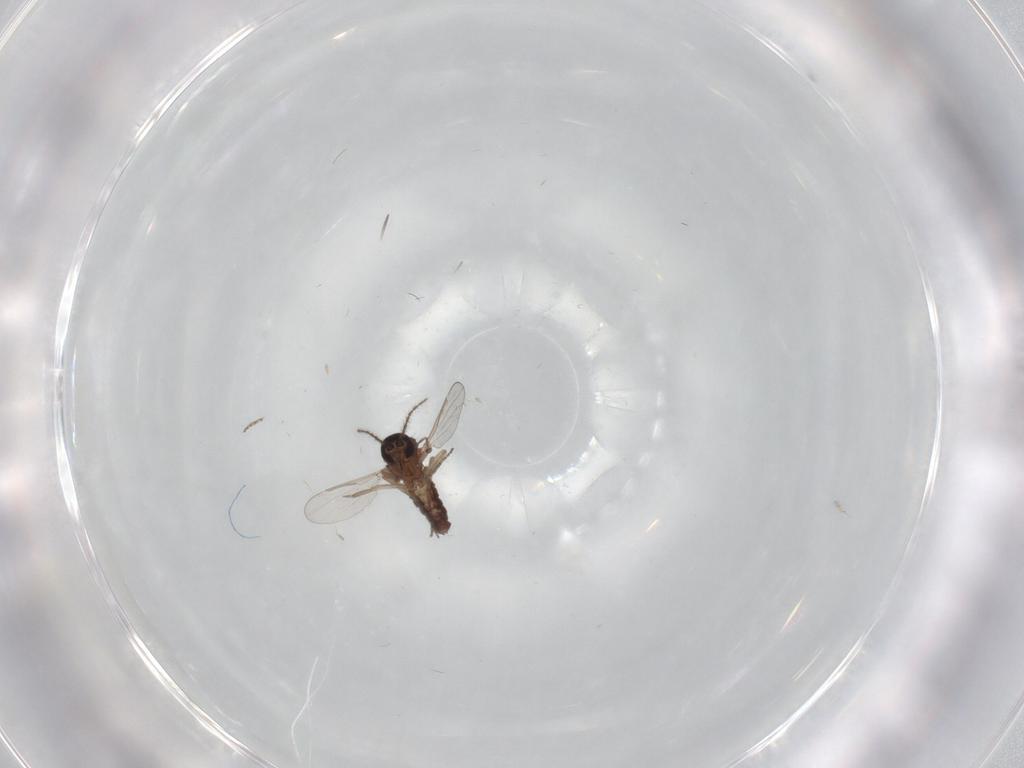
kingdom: Animalia
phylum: Arthropoda
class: Insecta
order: Diptera
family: Ceratopogonidae
